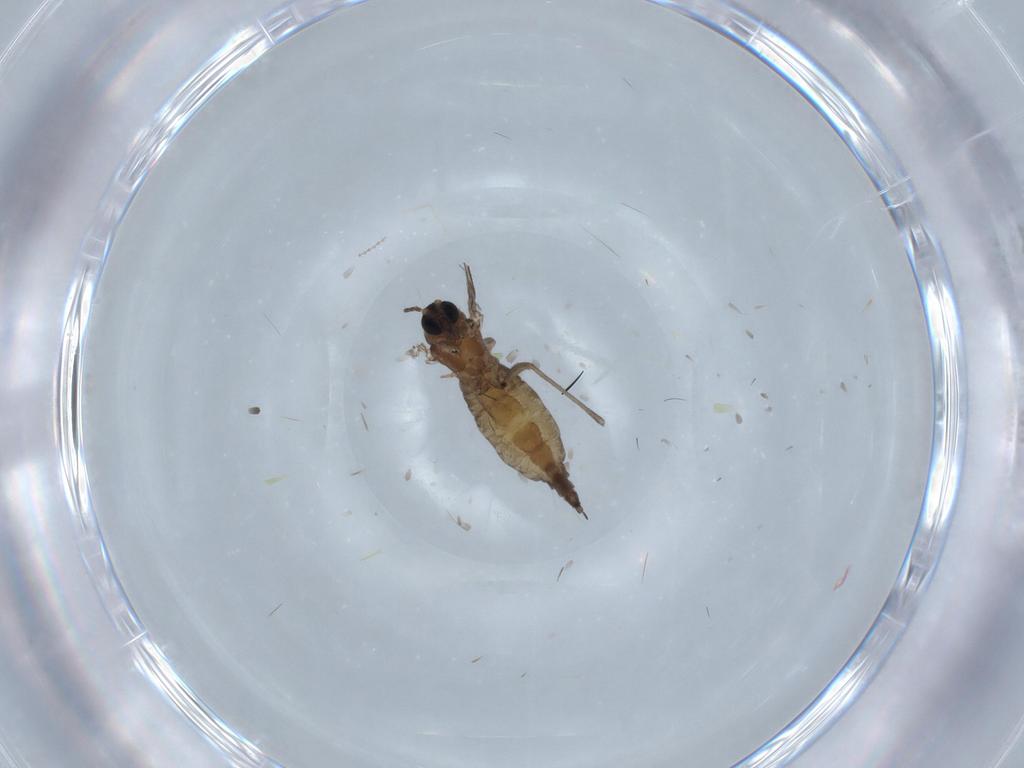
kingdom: Animalia
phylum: Arthropoda
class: Insecta
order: Diptera
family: Sciaridae
